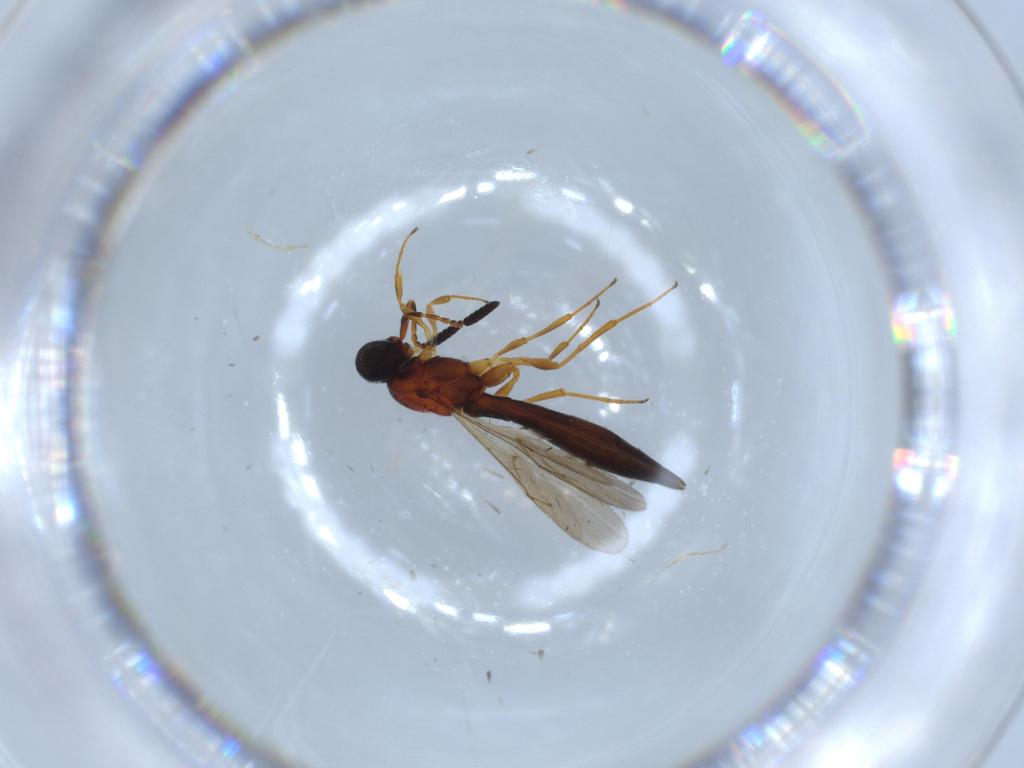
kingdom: Animalia
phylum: Arthropoda
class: Insecta
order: Hymenoptera
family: Scelionidae
